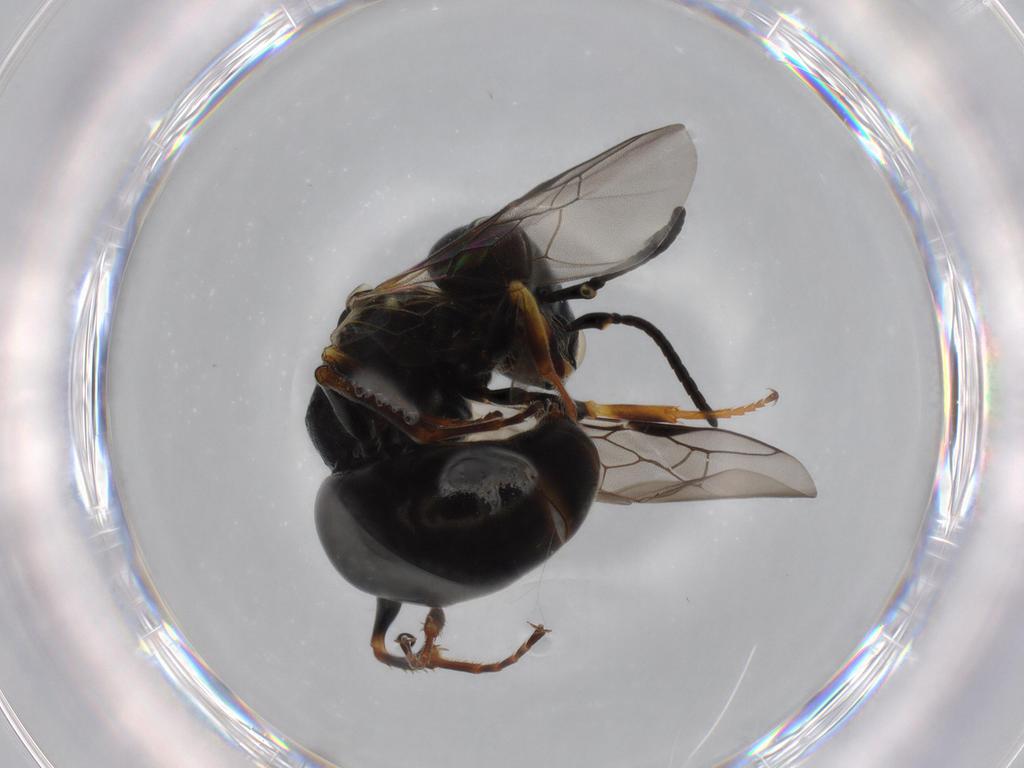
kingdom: Animalia
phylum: Arthropoda
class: Insecta
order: Hymenoptera
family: Crabronidae
